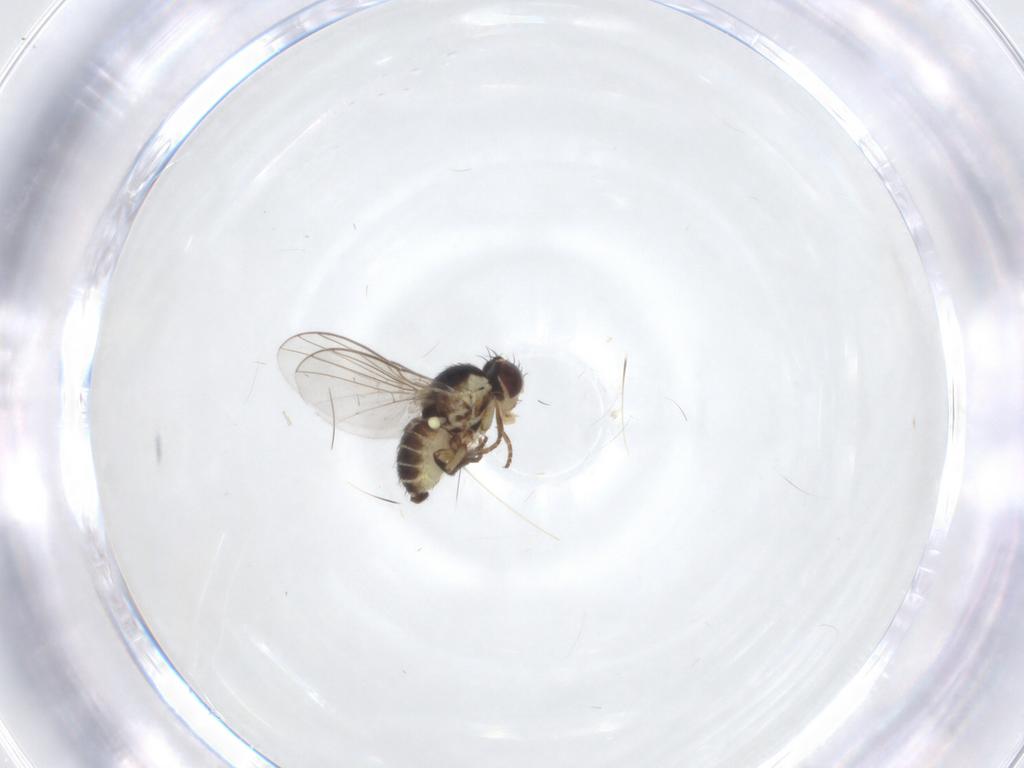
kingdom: Animalia
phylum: Arthropoda
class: Insecta
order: Diptera
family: Agromyzidae
